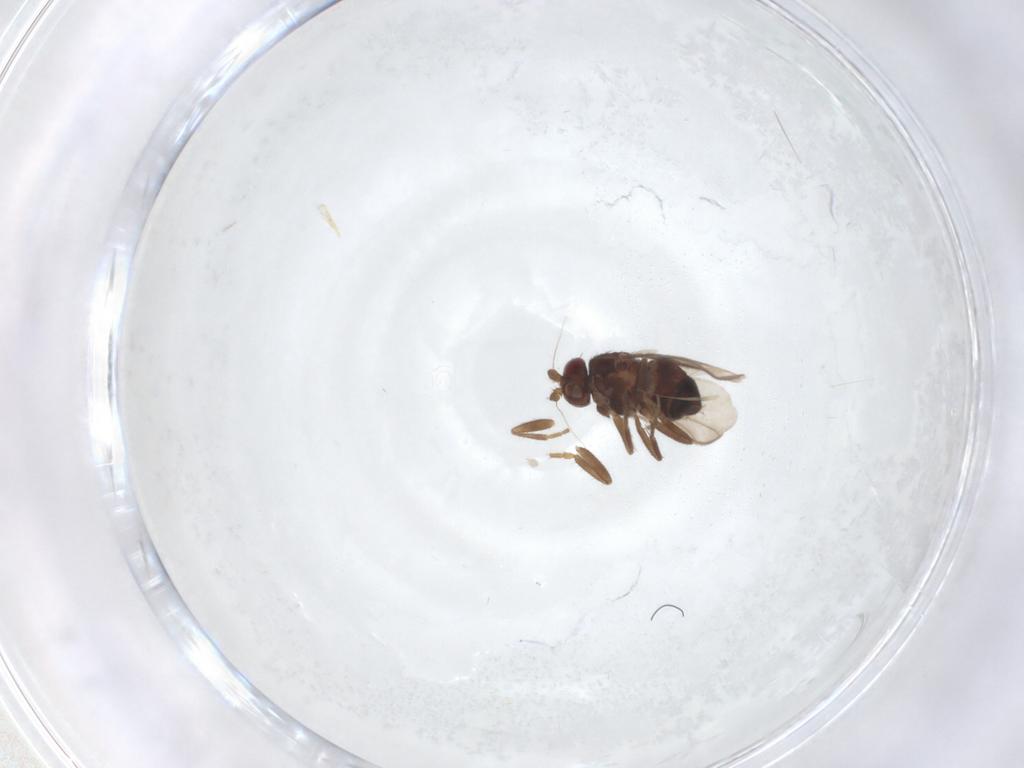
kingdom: Animalia
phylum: Arthropoda
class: Insecta
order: Diptera
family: Sphaeroceridae
